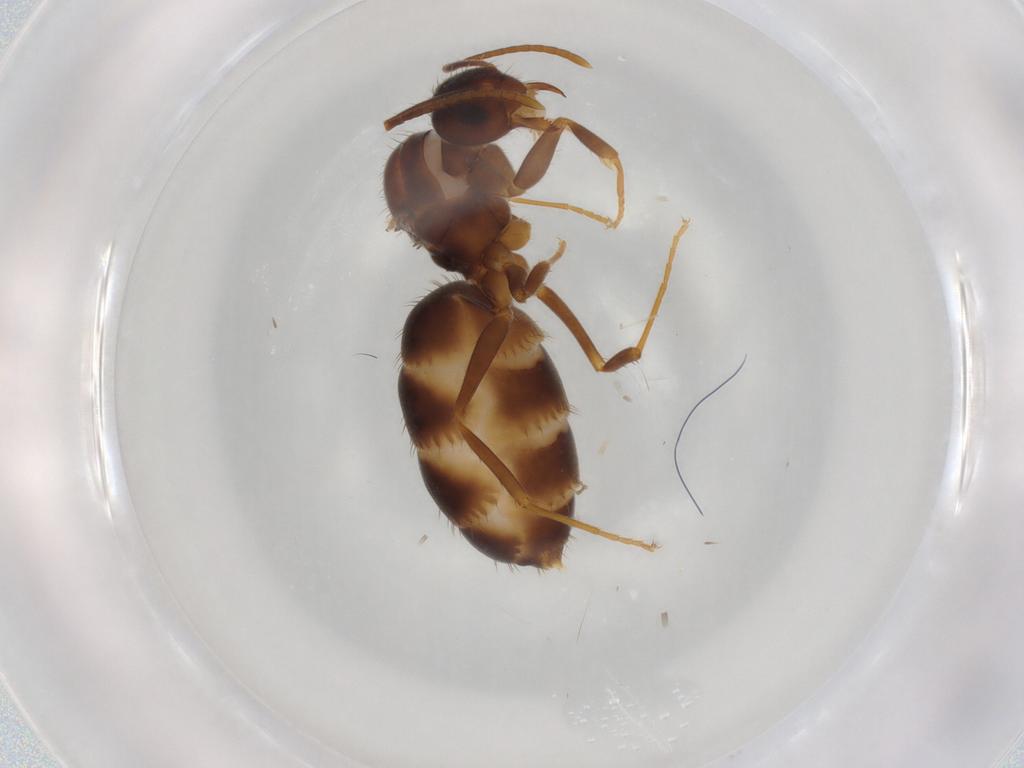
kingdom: Animalia
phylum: Arthropoda
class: Insecta
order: Hymenoptera
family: Formicidae
